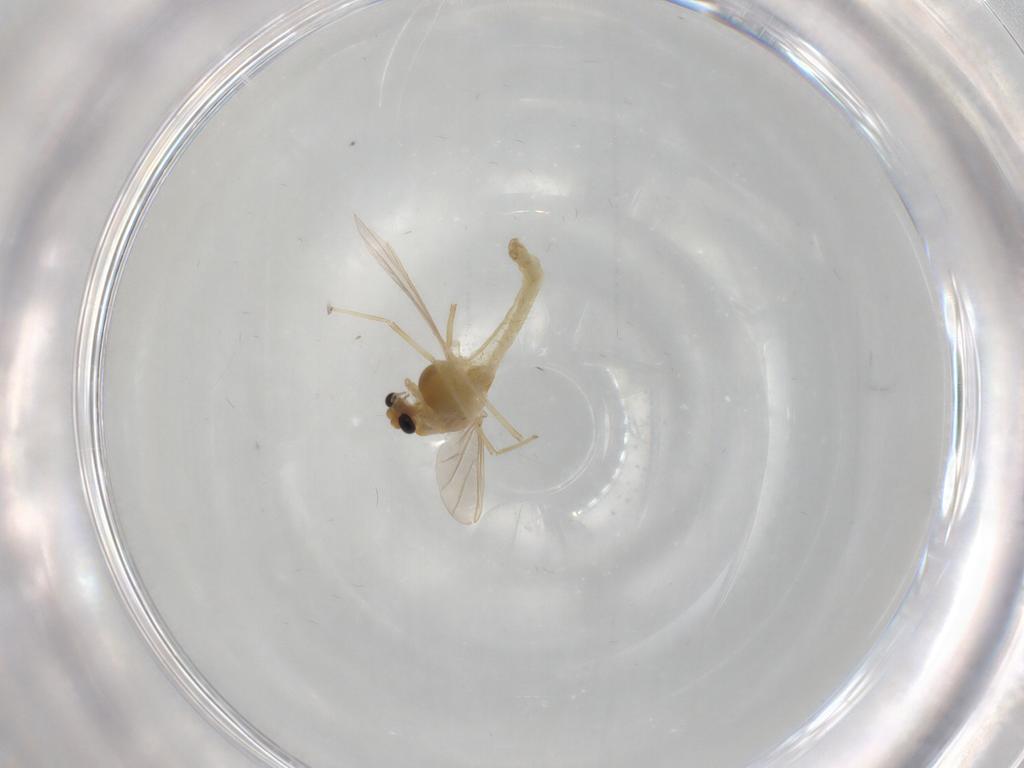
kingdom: Animalia
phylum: Arthropoda
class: Insecta
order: Diptera
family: Chironomidae
